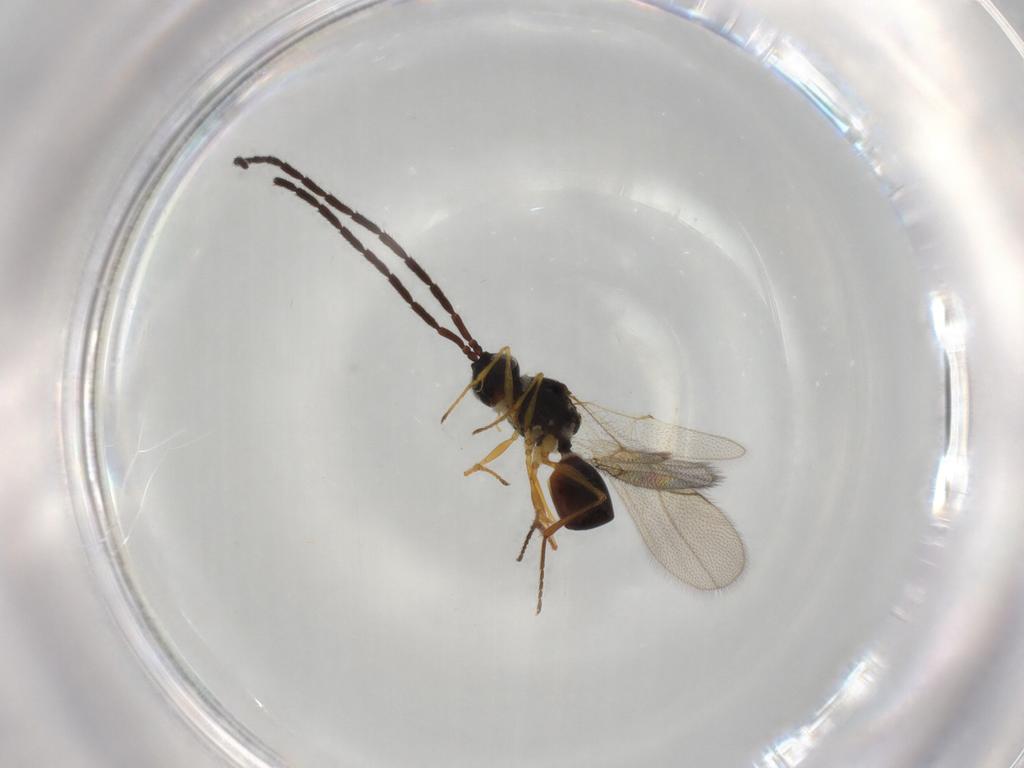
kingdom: Animalia
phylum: Arthropoda
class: Insecta
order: Hymenoptera
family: Figitidae
